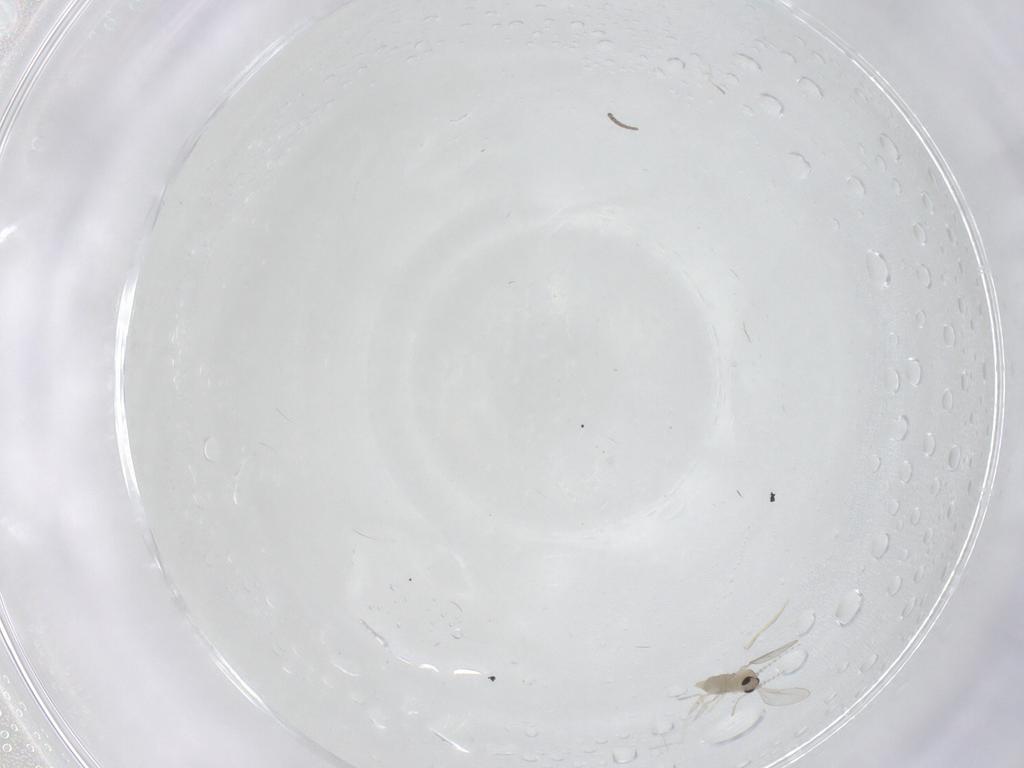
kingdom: Animalia
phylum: Arthropoda
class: Insecta
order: Diptera
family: Cecidomyiidae
